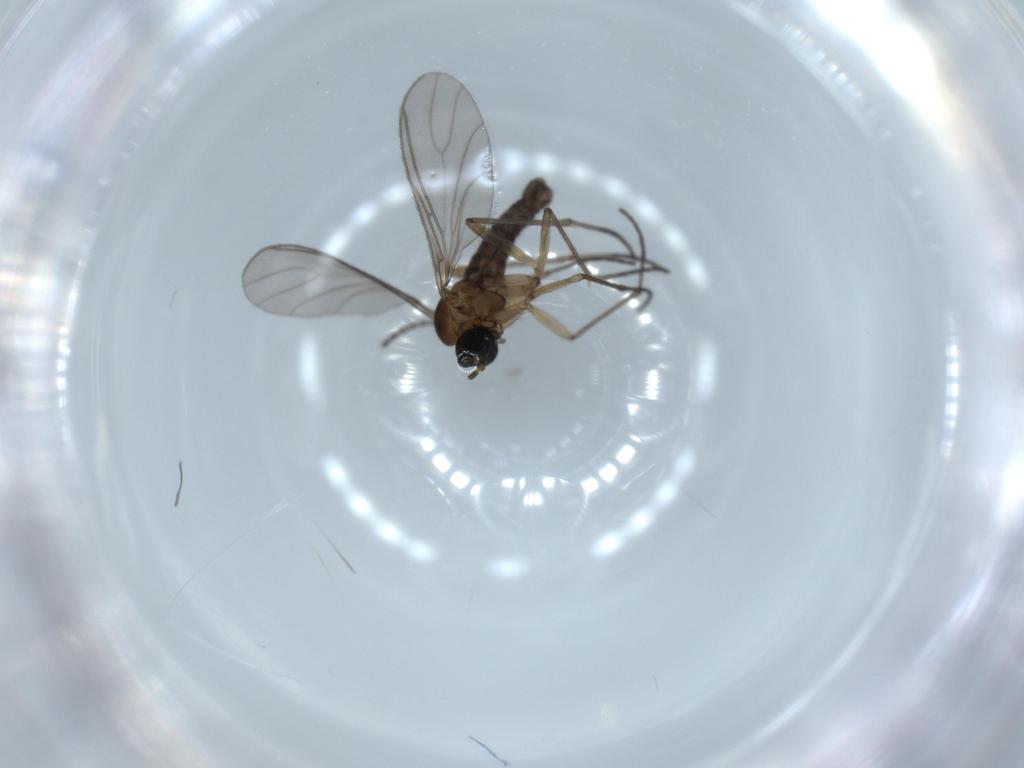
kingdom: Animalia
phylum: Arthropoda
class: Insecta
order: Diptera
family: Sciaridae
